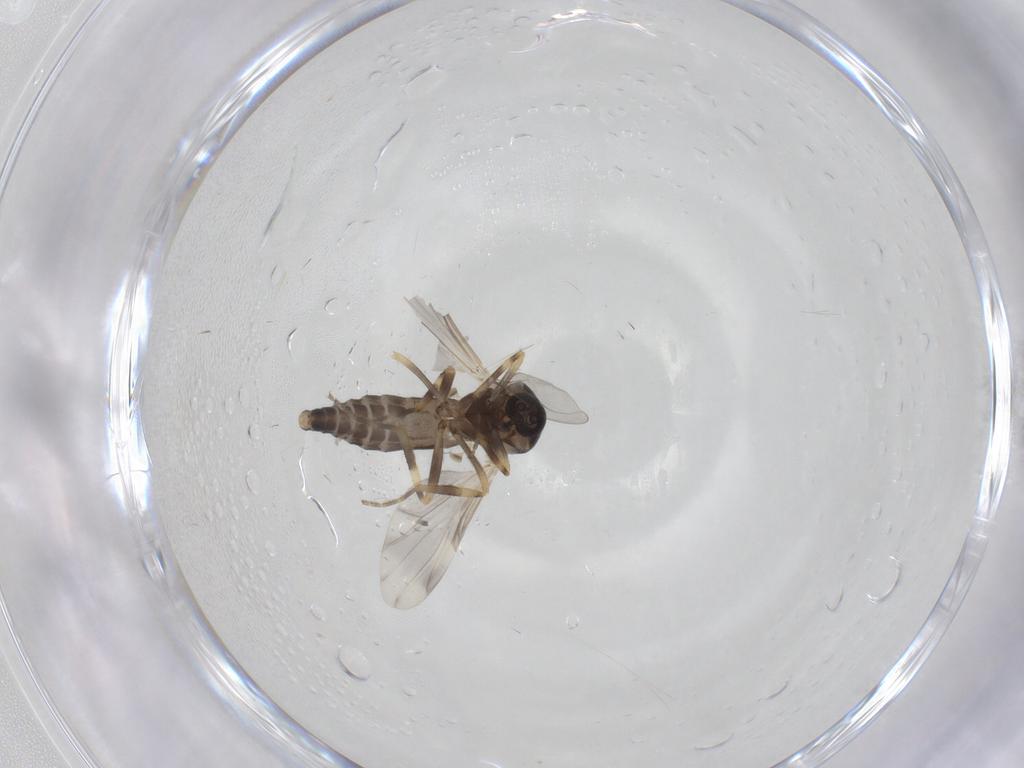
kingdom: Animalia
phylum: Arthropoda
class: Insecta
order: Diptera
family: Ceratopogonidae
